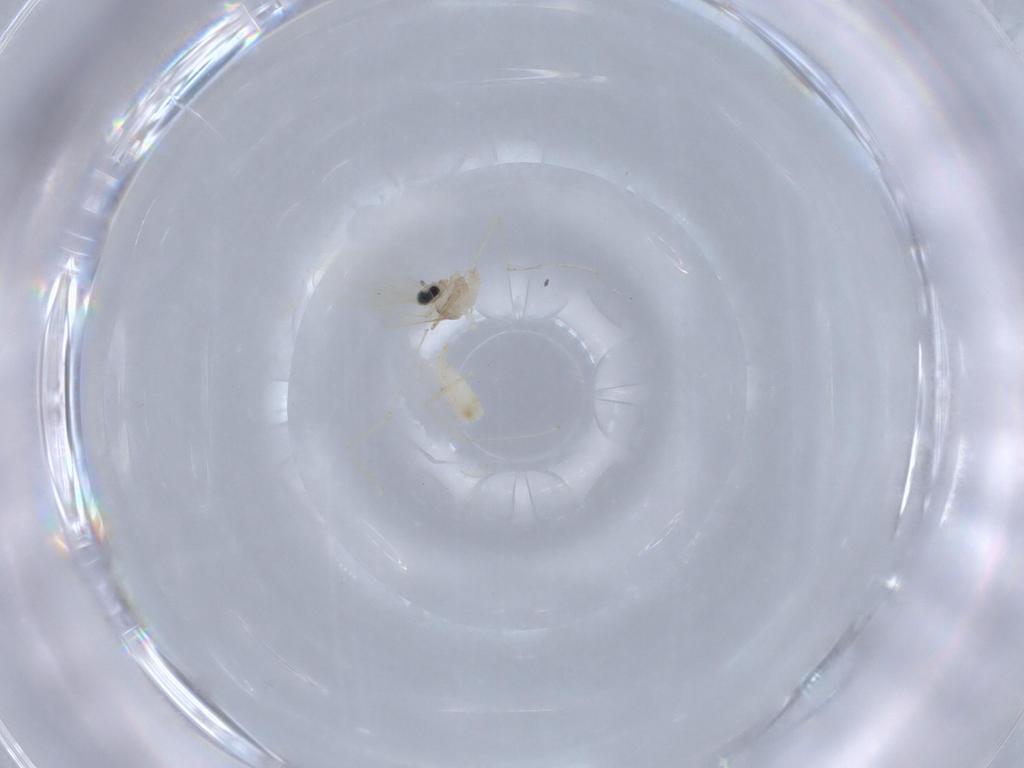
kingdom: Animalia
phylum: Arthropoda
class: Insecta
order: Diptera
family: Cecidomyiidae
